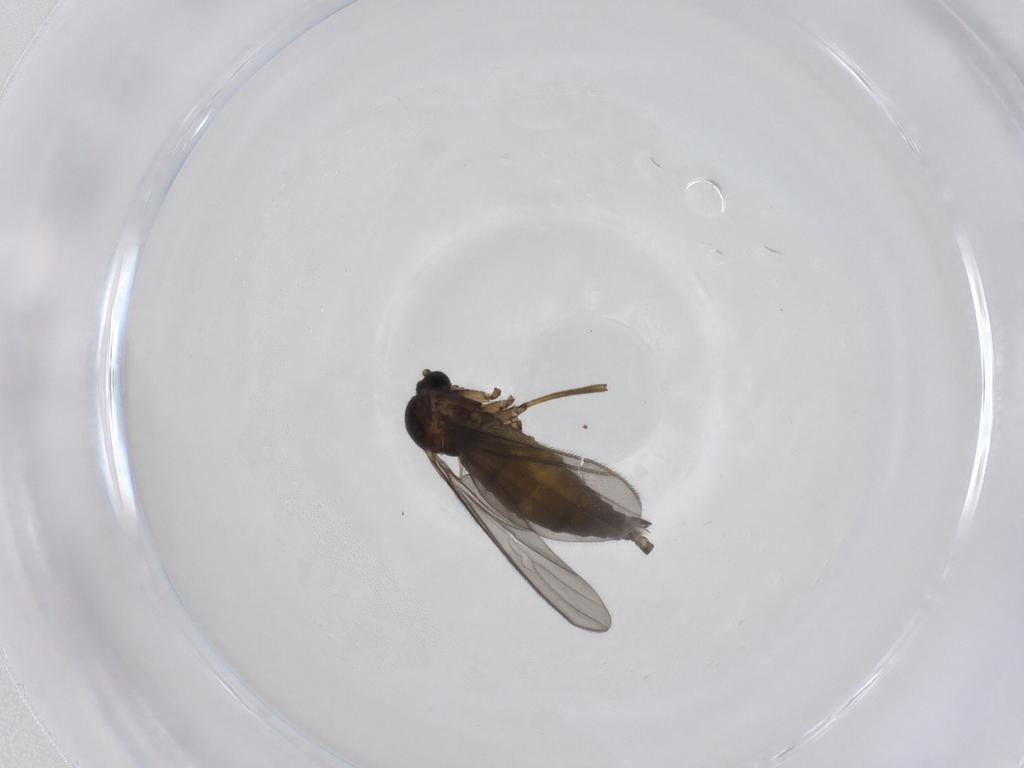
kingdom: Animalia
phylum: Arthropoda
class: Insecta
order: Diptera
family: Sciaridae
